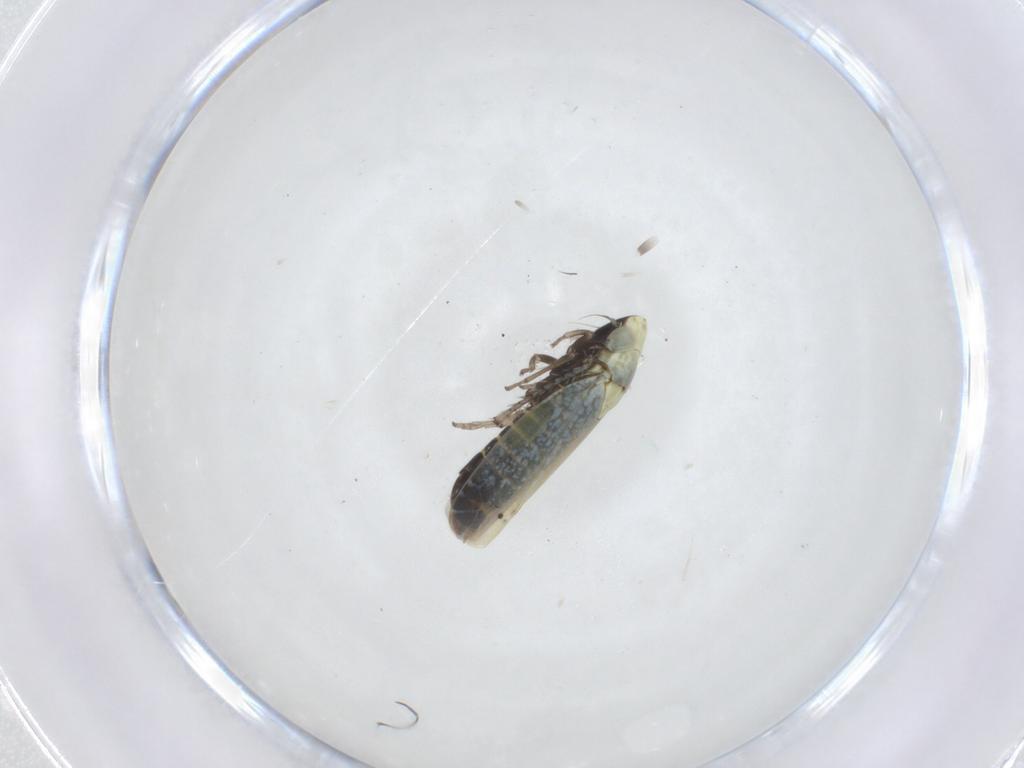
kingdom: Animalia
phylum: Arthropoda
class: Insecta
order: Hemiptera
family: Cicadellidae
